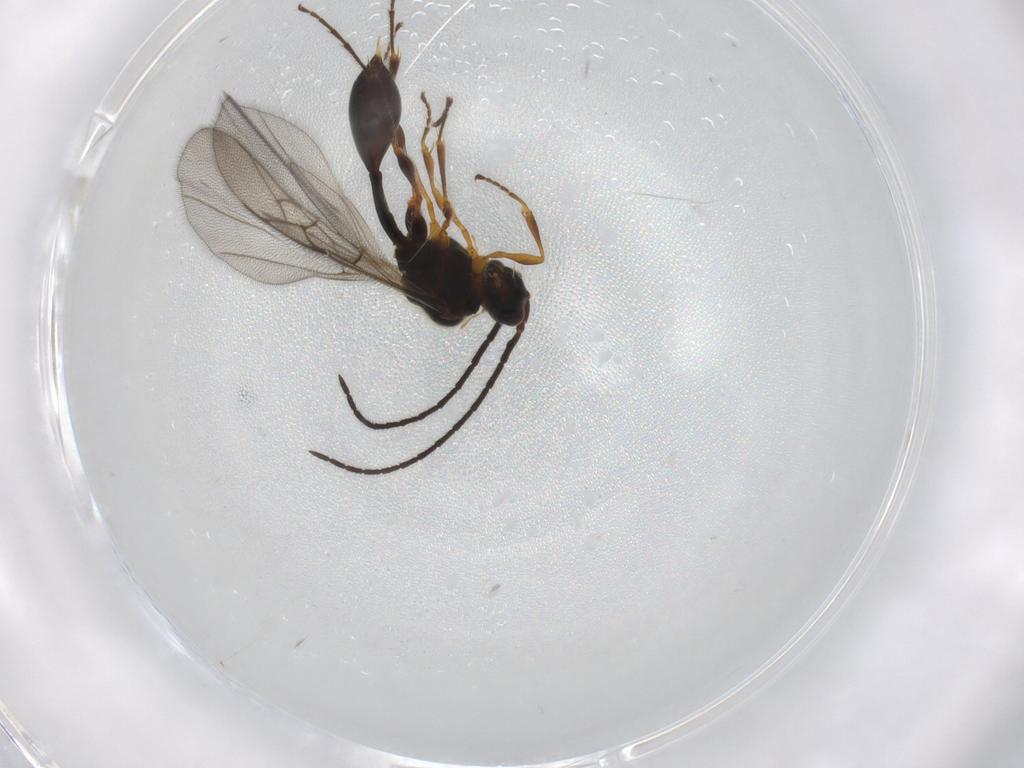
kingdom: Animalia
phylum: Arthropoda
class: Insecta
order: Hymenoptera
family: Diapriidae
